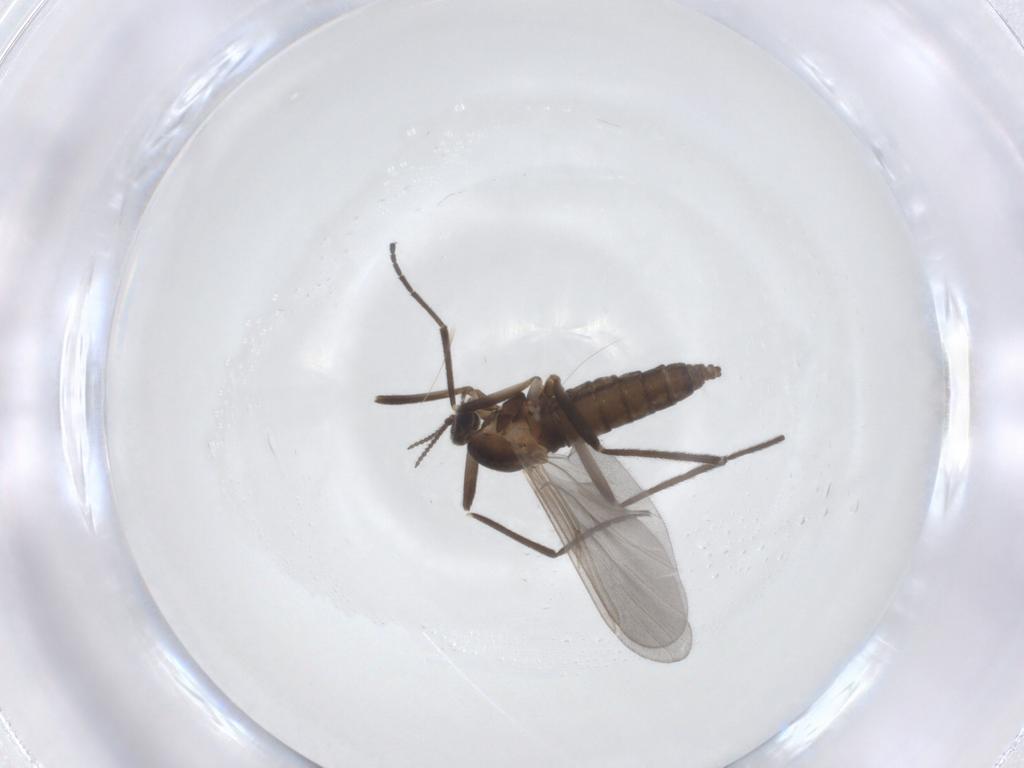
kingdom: Animalia
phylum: Arthropoda
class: Insecta
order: Diptera
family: Cecidomyiidae
